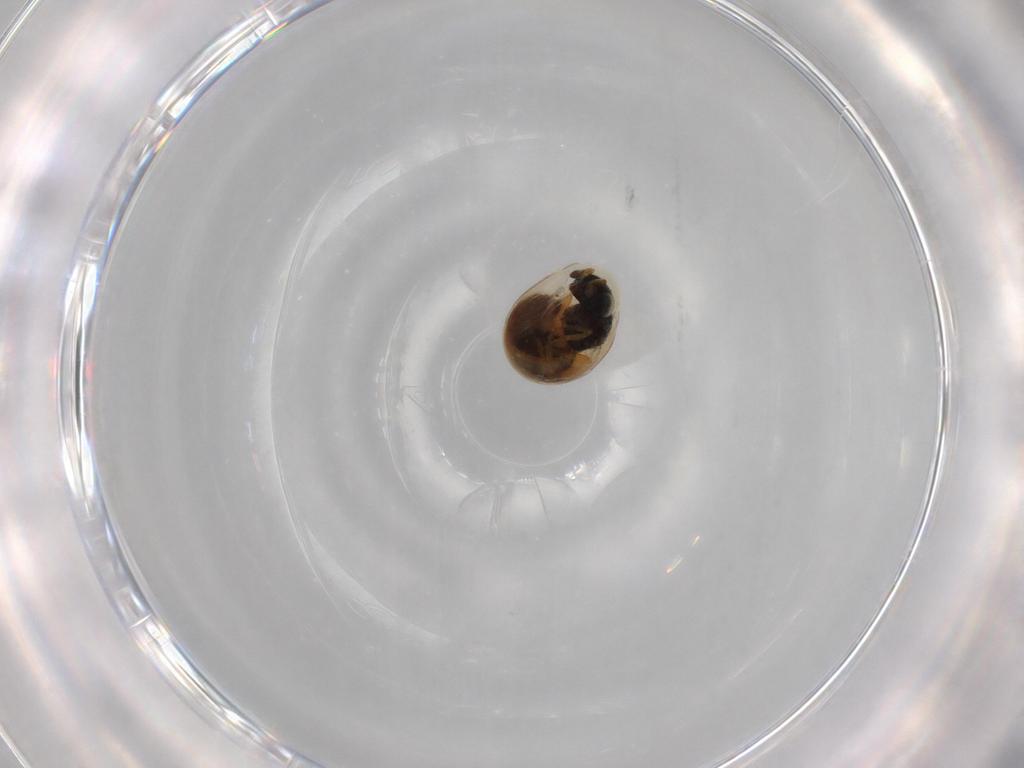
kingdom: Animalia
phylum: Arthropoda
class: Insecta
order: Hymenoptera
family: Scelionidae
